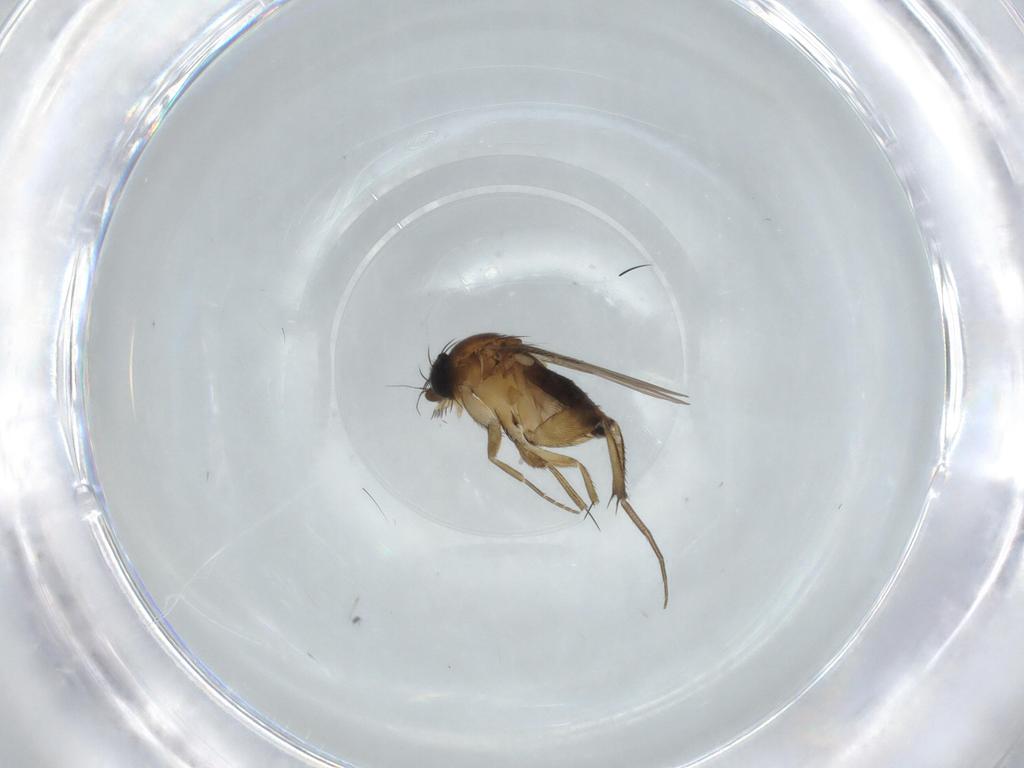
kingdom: Animalia
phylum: Arthropoda
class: Insecta
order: Diptera
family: Phoridae
